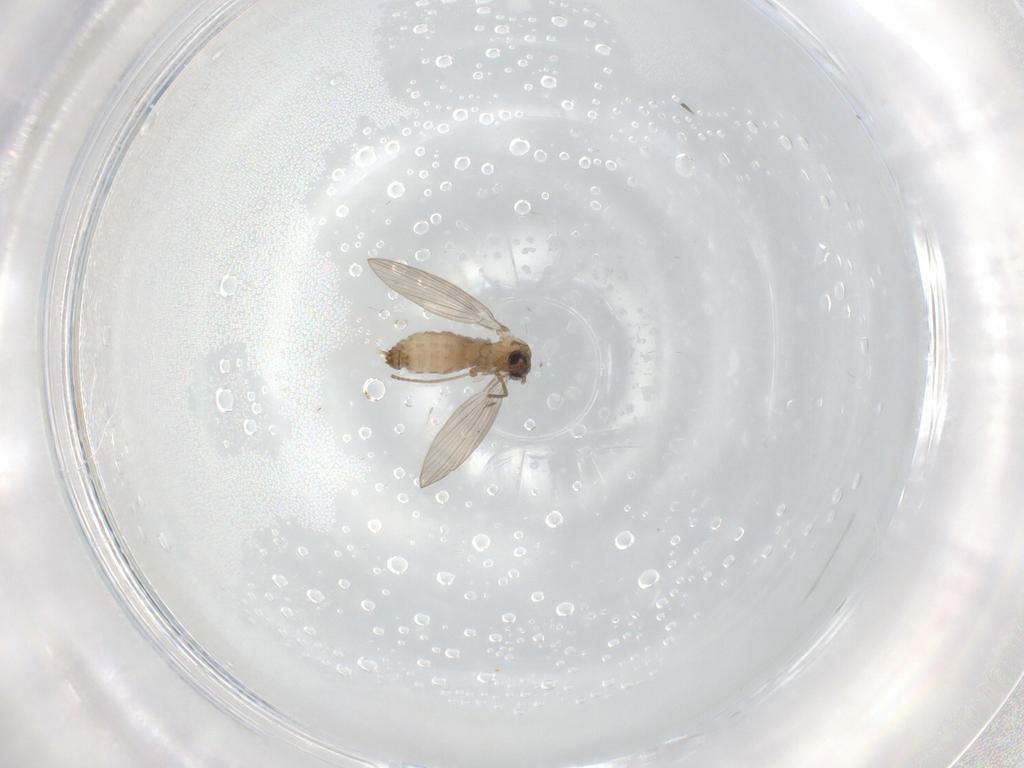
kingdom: Animalia
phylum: Arthropoda
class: Insecta
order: Diptera
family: Psychodidae
